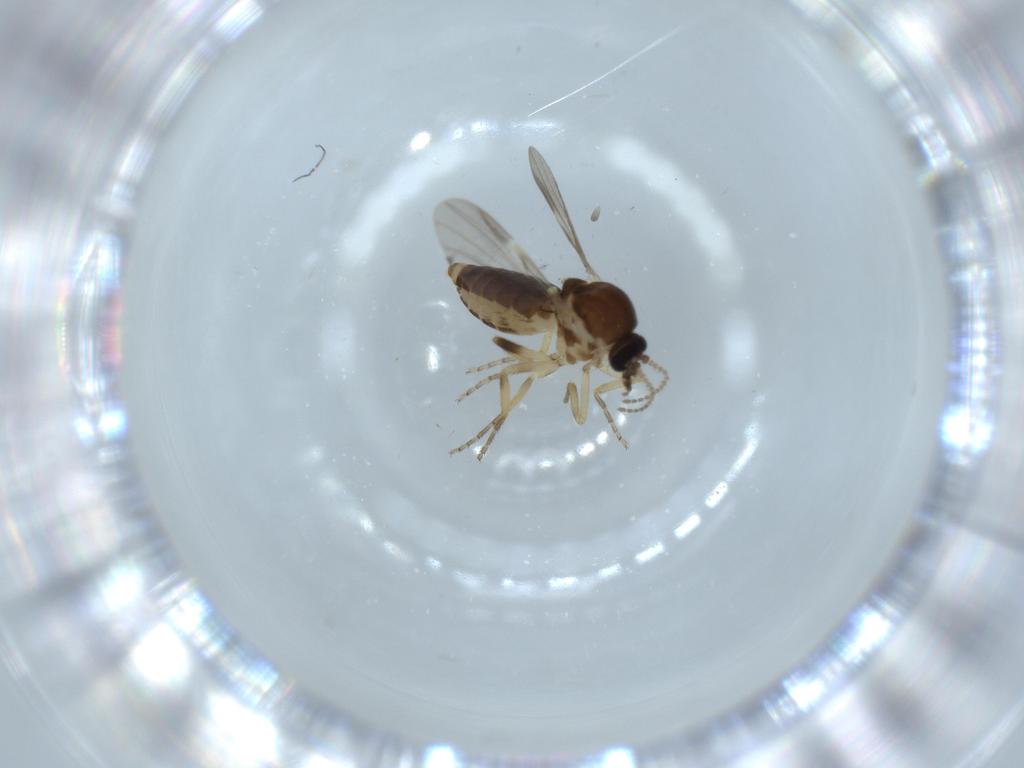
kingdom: Animalia
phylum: Arthropoda
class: Insecta
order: Diptera
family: Ceratopogonidae
